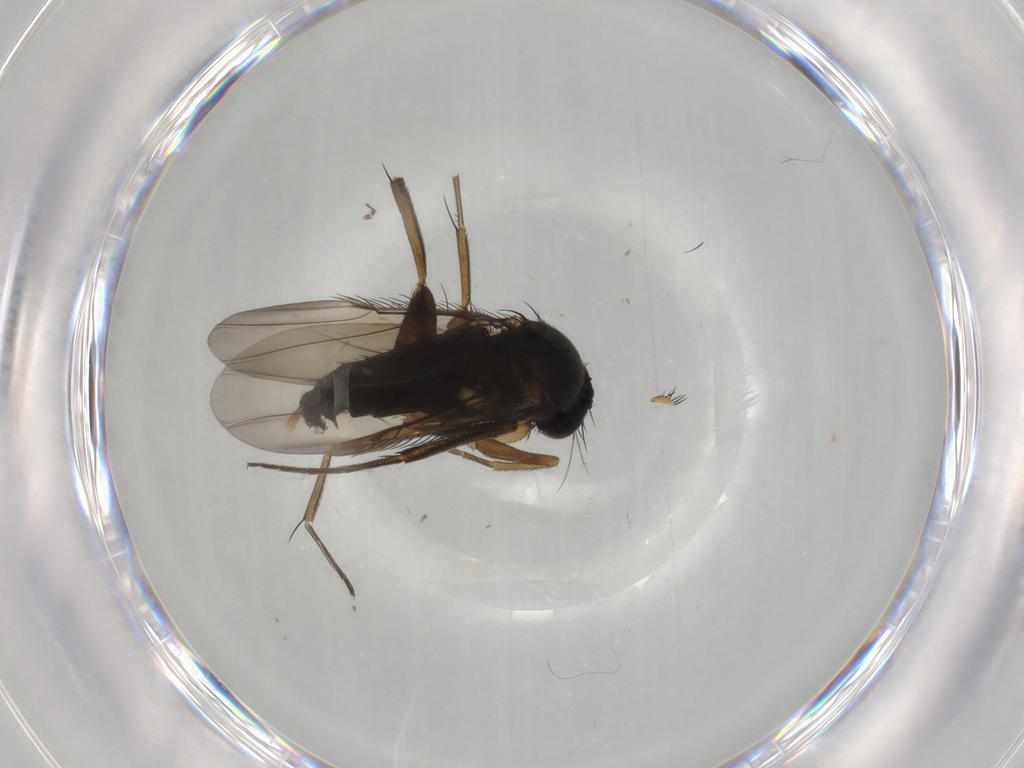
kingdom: Animalia
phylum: Arthropoda
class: Insecta
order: Diptera
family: Phoridae
